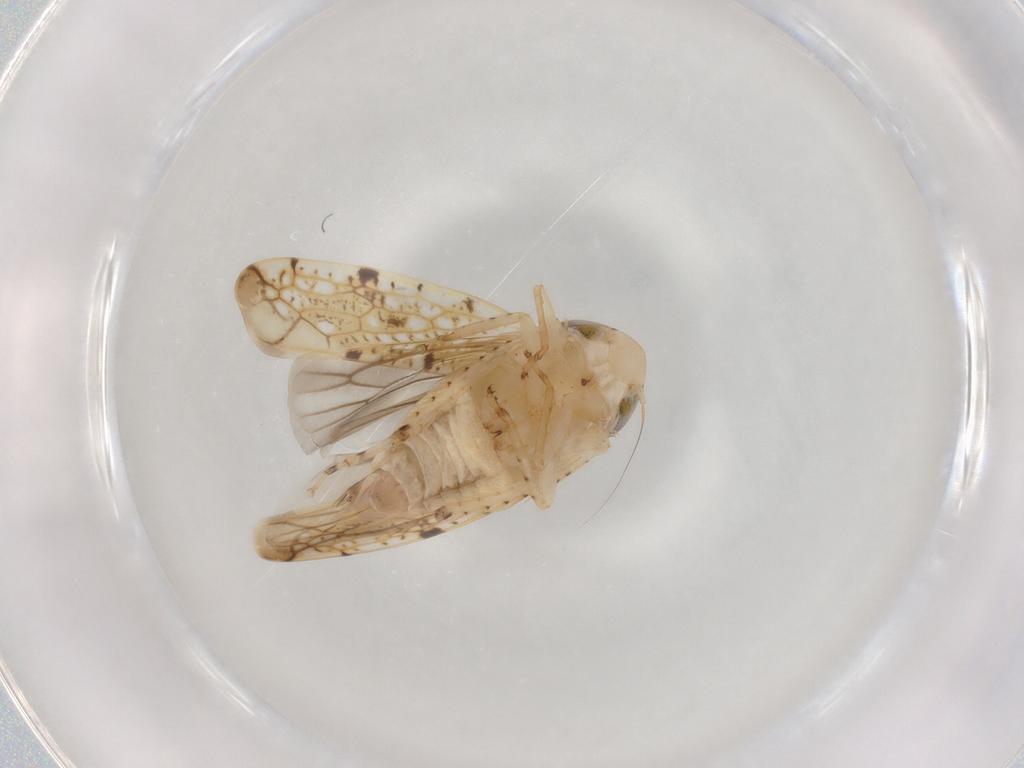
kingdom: Animalia
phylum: Arthropoda
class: Insecta
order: Hemiptera
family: Cicadellidae
